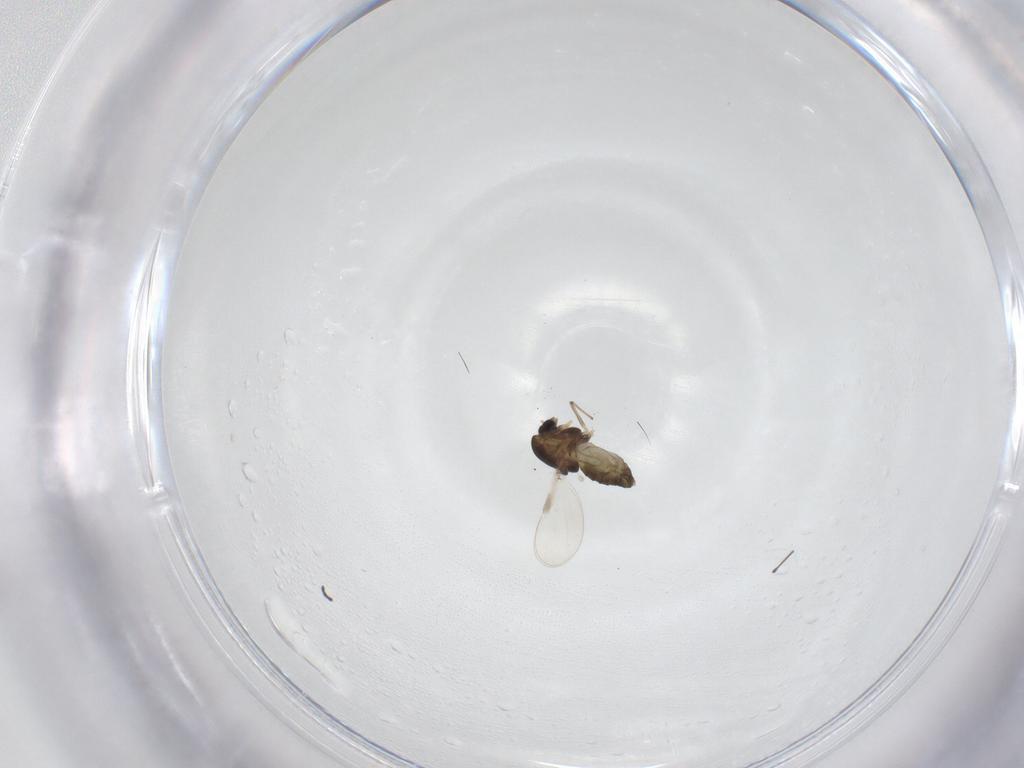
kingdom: Animalia
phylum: Arthropoda
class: Insecta
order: Diptera
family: Chironomidae
